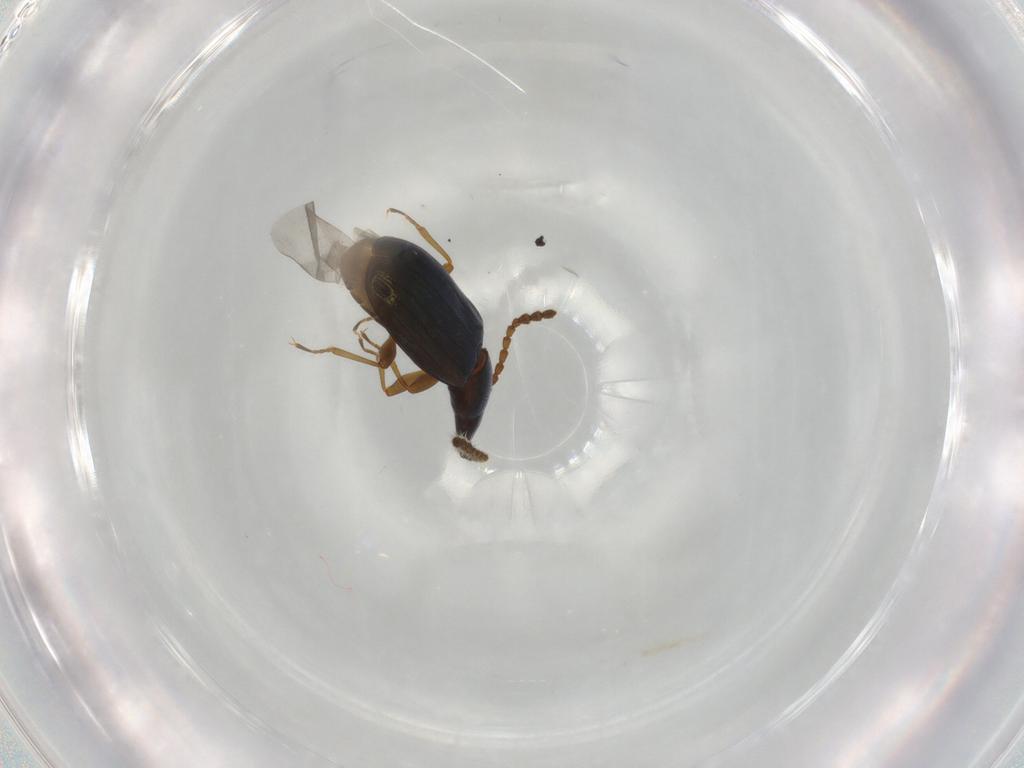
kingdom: Animalia
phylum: Arthropoda
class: Insecta
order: Coleoptera
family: Laemophloeidae
